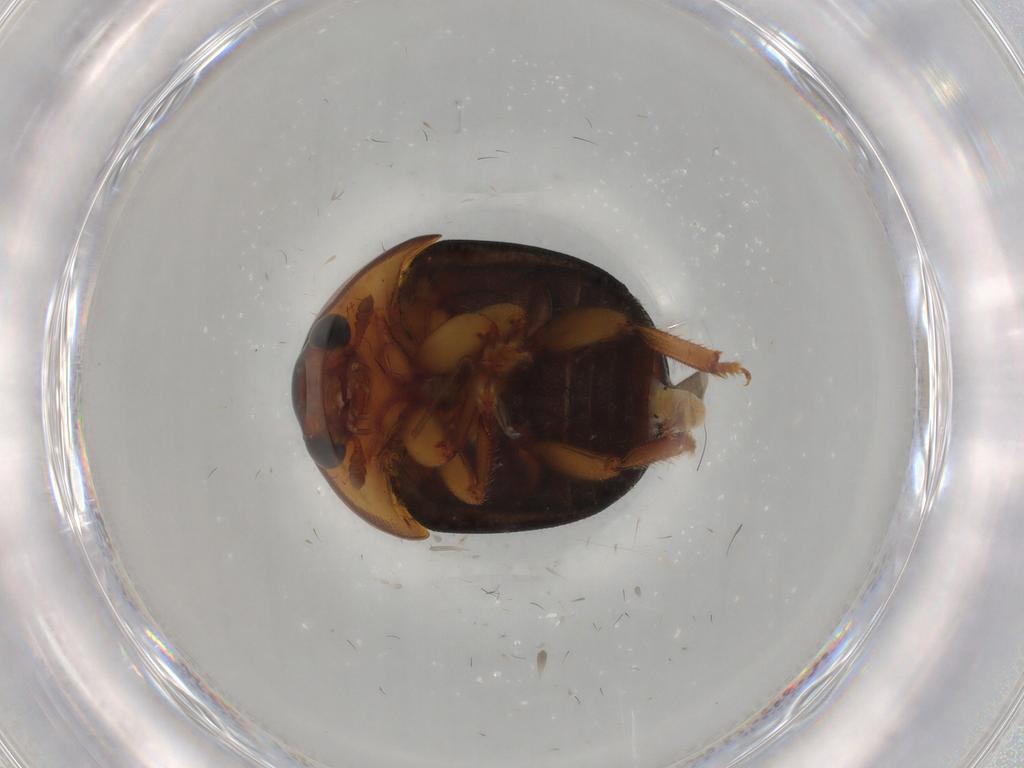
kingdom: Animalia
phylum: Arthropoda
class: Insecta
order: Coleoptera
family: Nitidulidae
